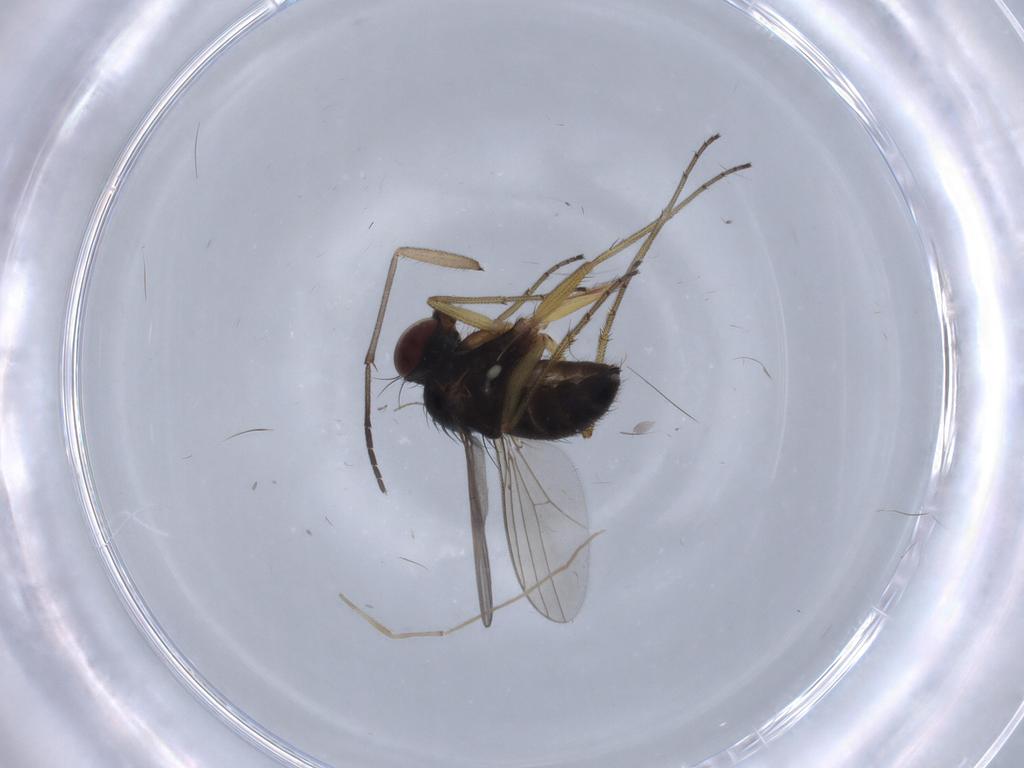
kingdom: Animalia
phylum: Arthropoda
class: Insecta
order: Diptera
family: Dolichopodidae
